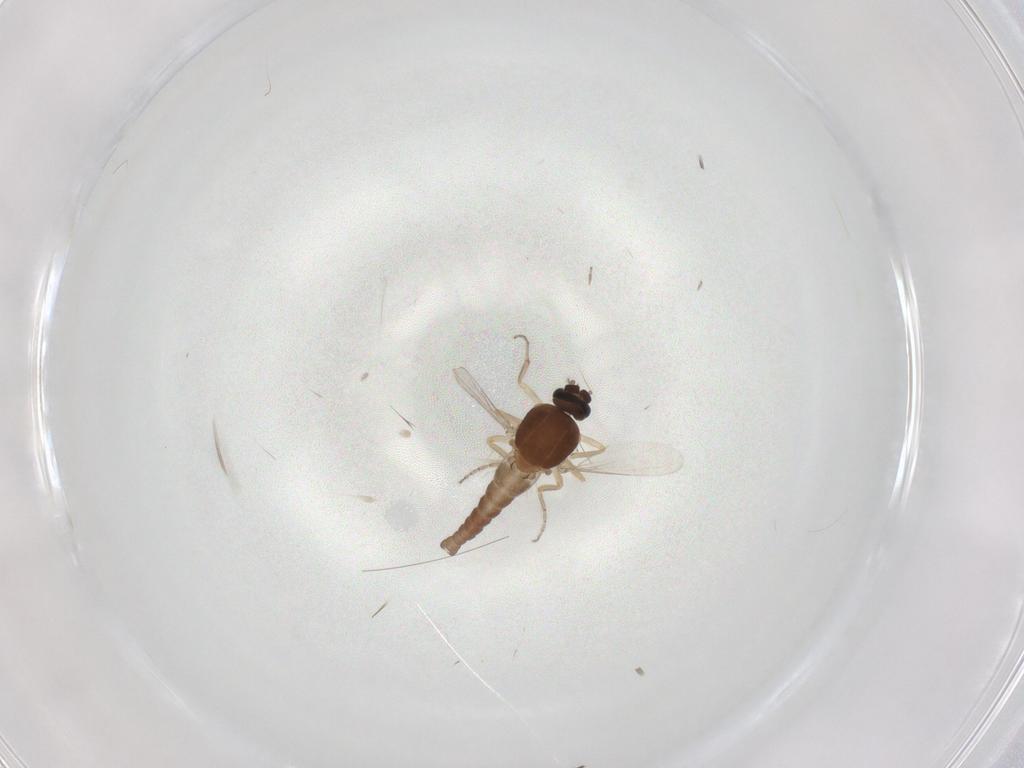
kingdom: Animalia
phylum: Arthropoda
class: Insecta
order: Diptera
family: Ceratopogonidae
